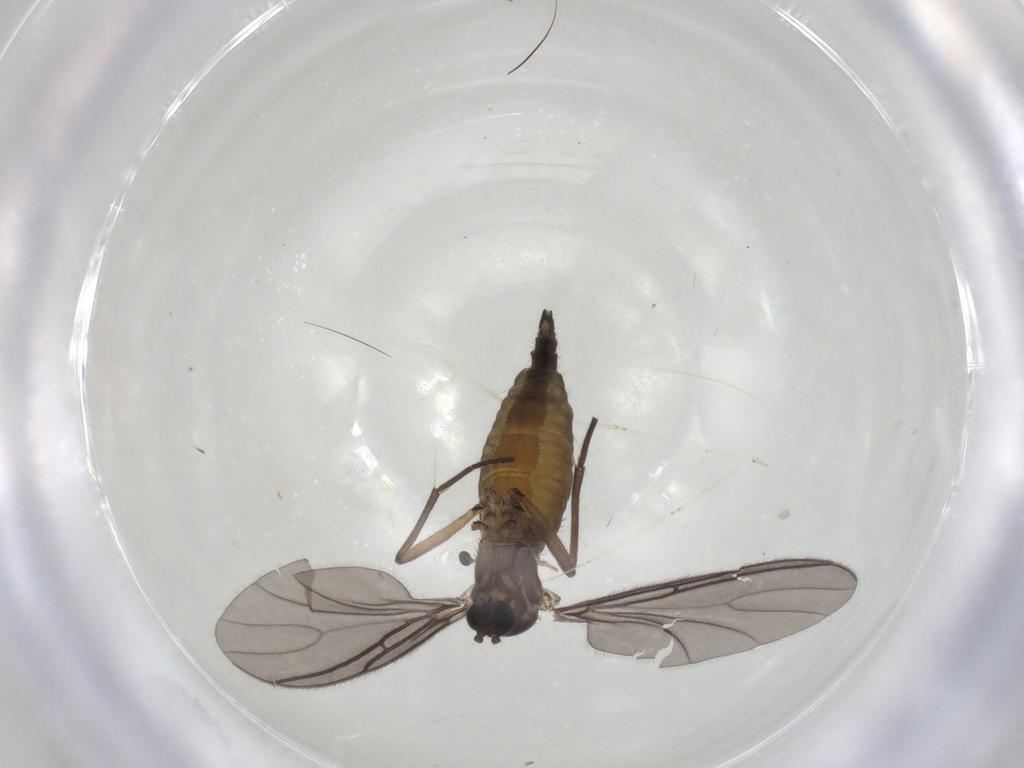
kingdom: Animalia
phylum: Arthropoda
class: Insecta
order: Diptera
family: Sciaridae
